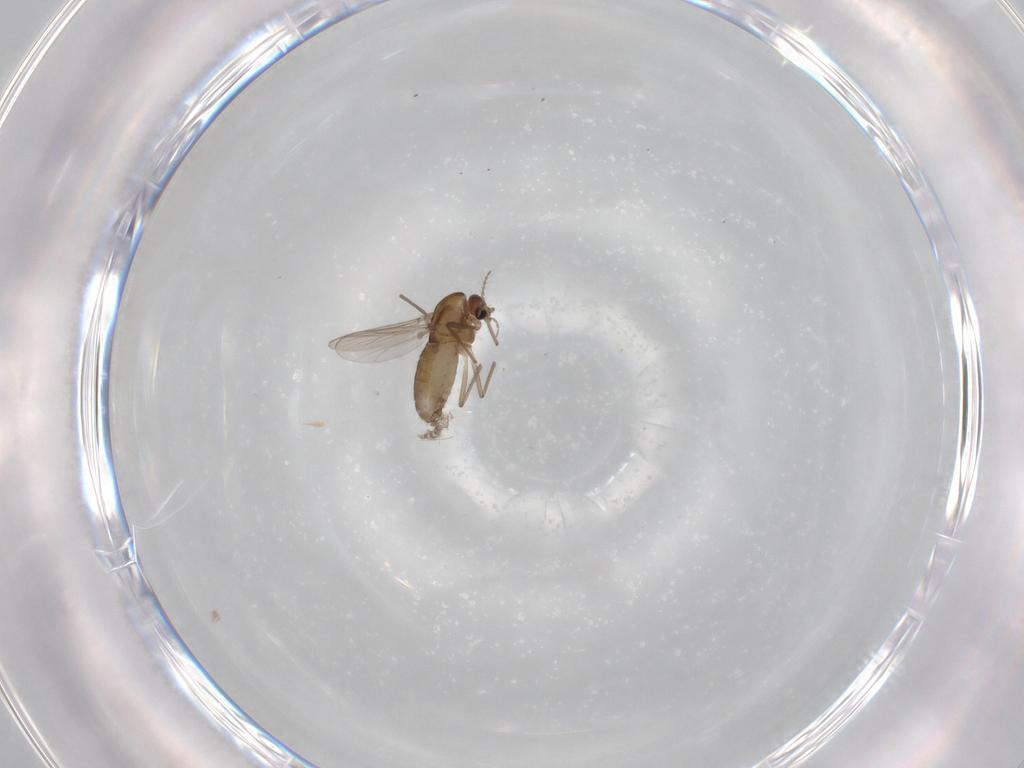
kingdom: Animalia
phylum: Arthropoda
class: Insecta
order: Diptera
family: Chironomidae
